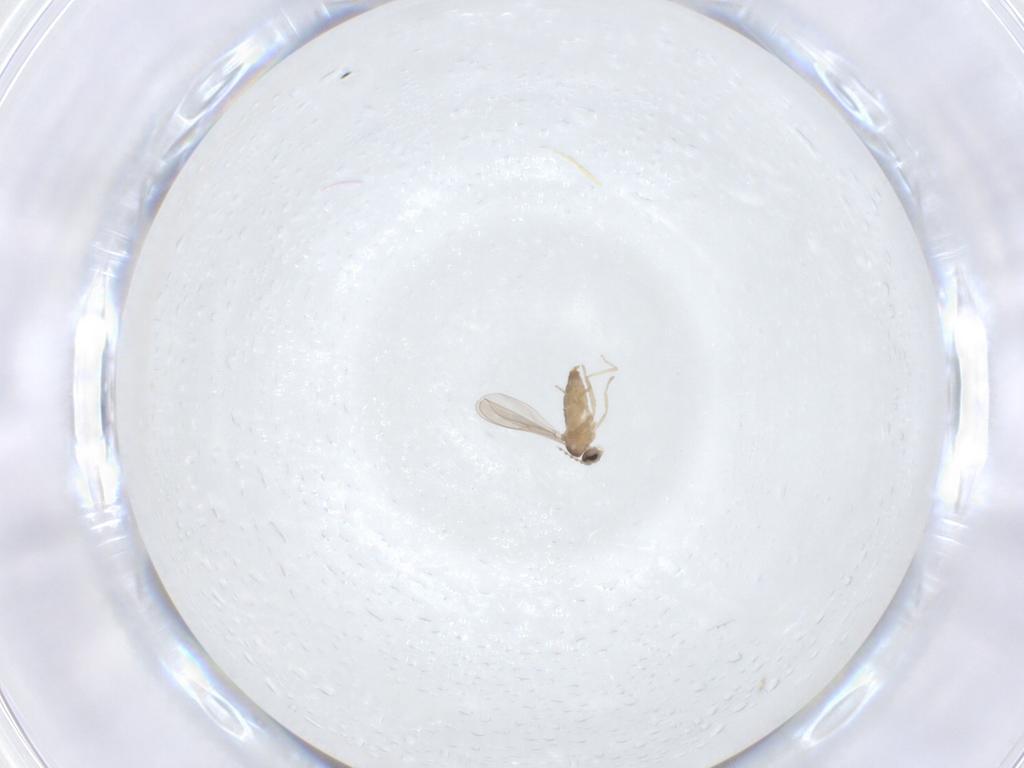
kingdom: Animalia
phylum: Arthropoda
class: Insecta
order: Diptera
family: Cecidomyiidae
